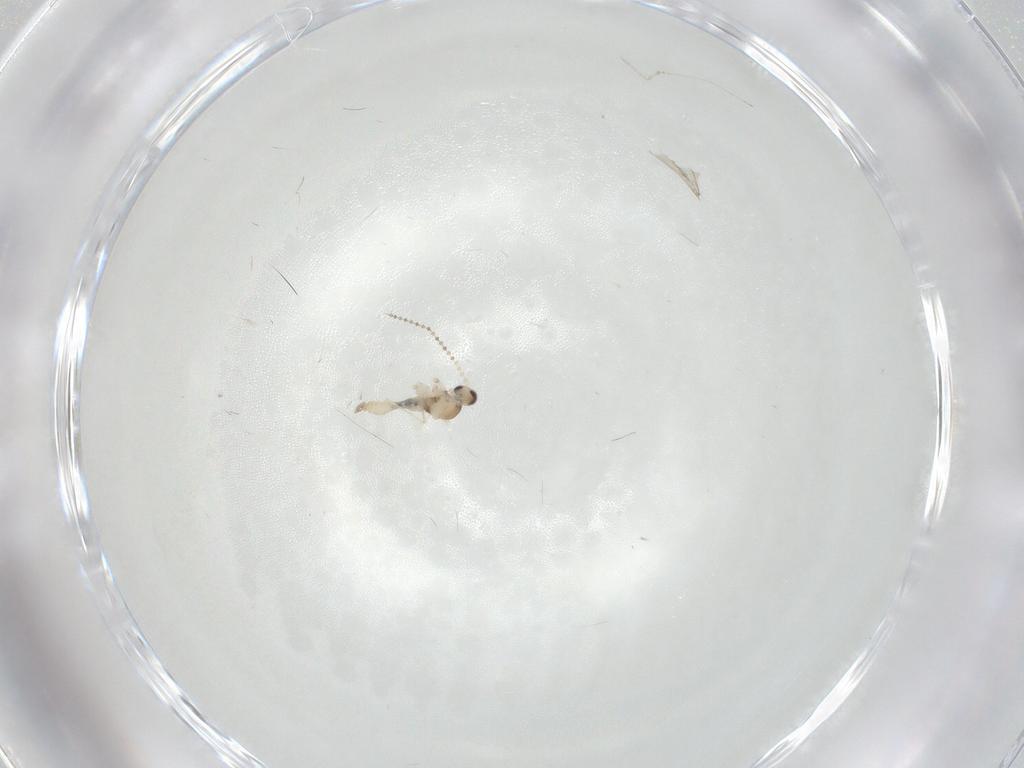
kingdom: Animalia
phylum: Arthropoda
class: Insecta
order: Diptera
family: Cecidomyiidae
